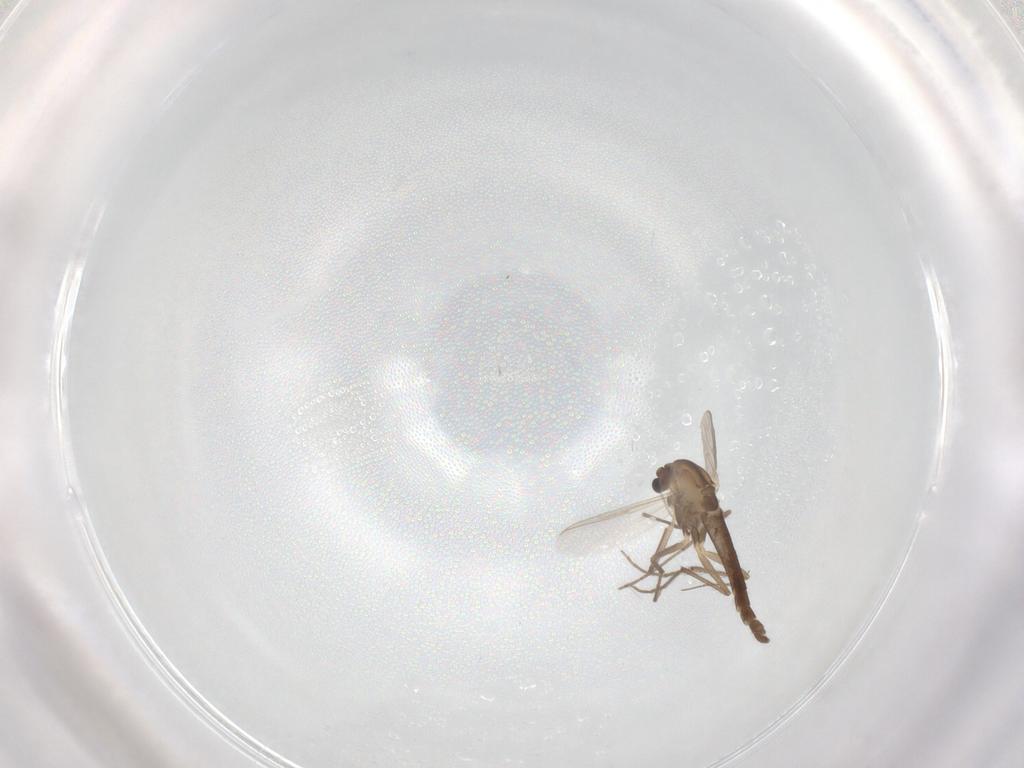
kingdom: Animalia
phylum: Arthropoda
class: Insecta
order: Diptera
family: Chironomidae
